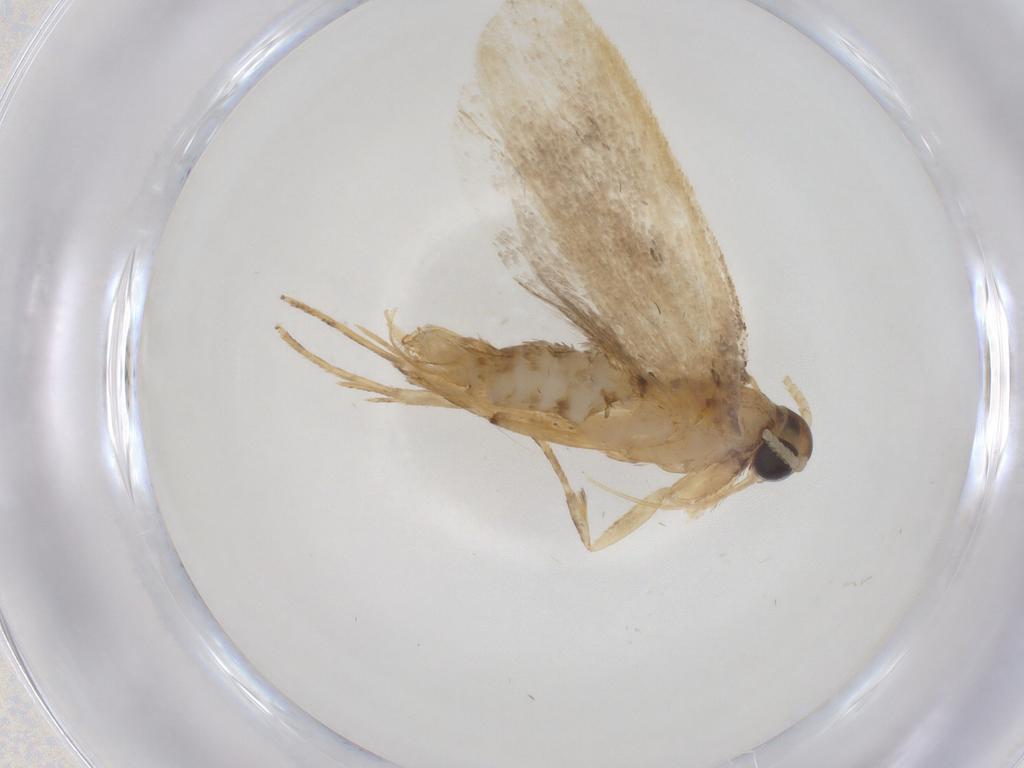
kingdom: Animalia
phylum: Arthropoda
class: Insecta
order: Lepidoptera
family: Lecithoceridae
